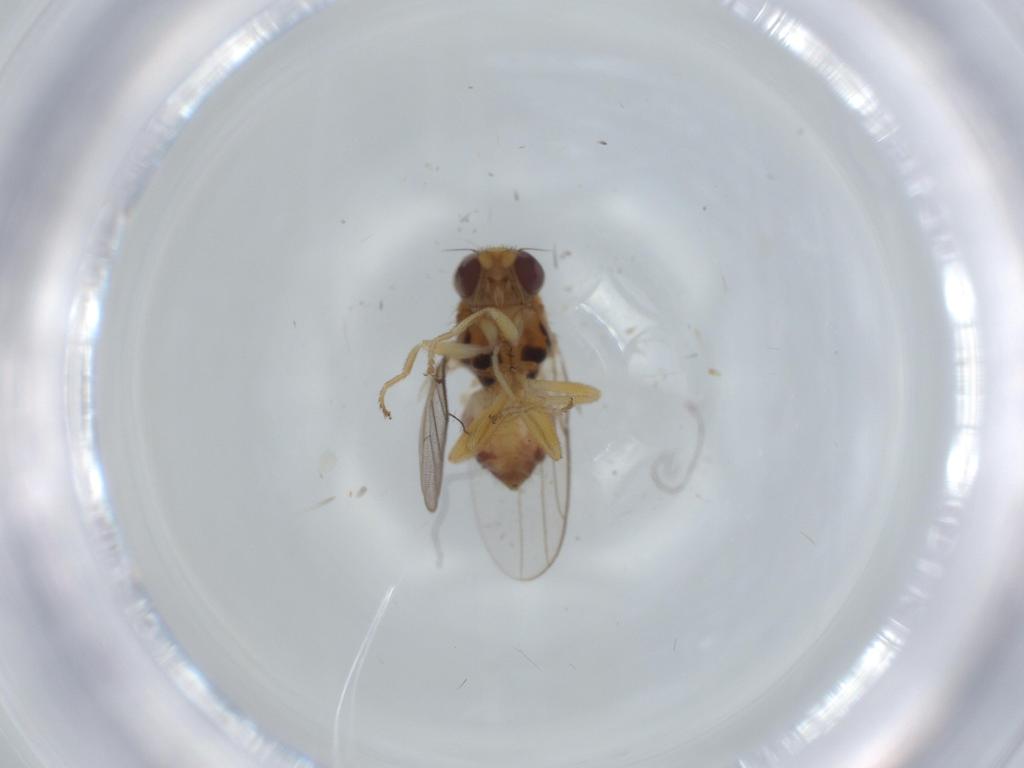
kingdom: Animalia
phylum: Arthropoda
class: Insecta
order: Diptera
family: Chloropidae
